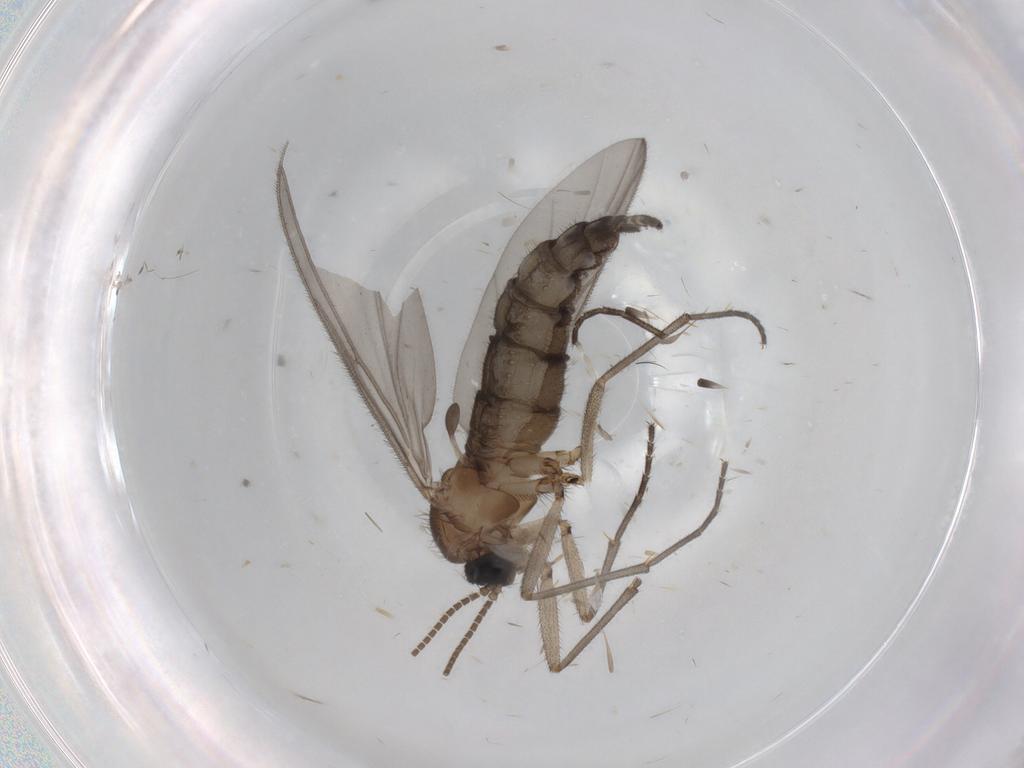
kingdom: Animalia
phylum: Arthropoda
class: Insecta
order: Diptera
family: Cecidomyiidae
